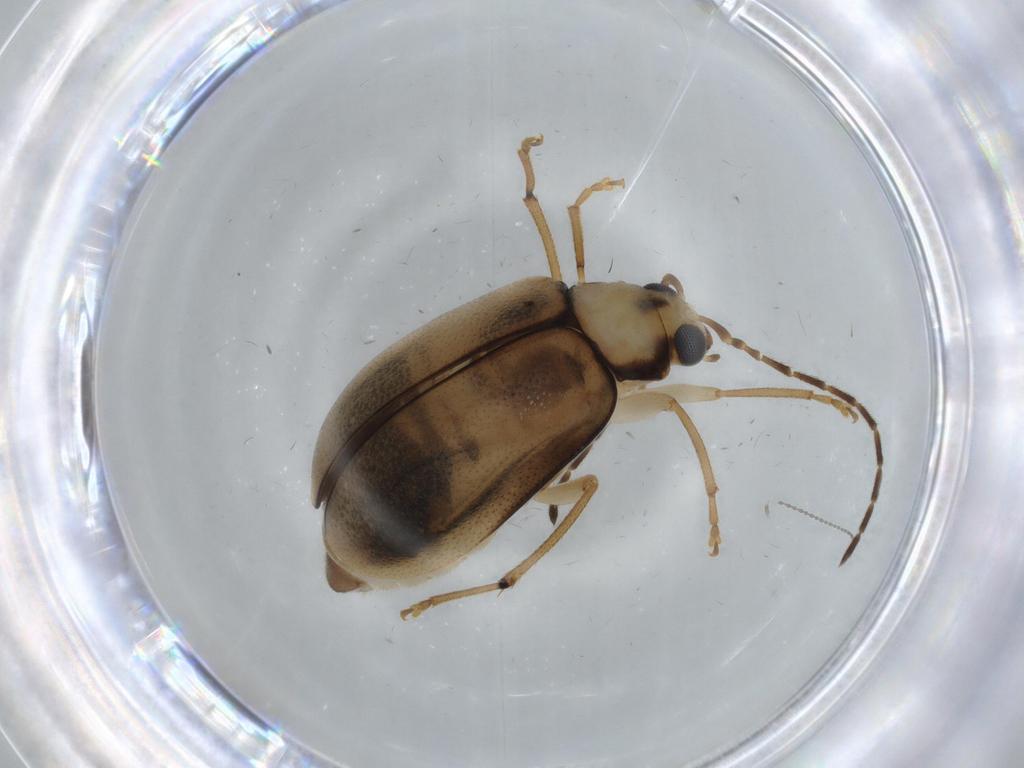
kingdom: Animalia
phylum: Arthropoda
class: Insecta
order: Coleoptera
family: Chrysomelidae
